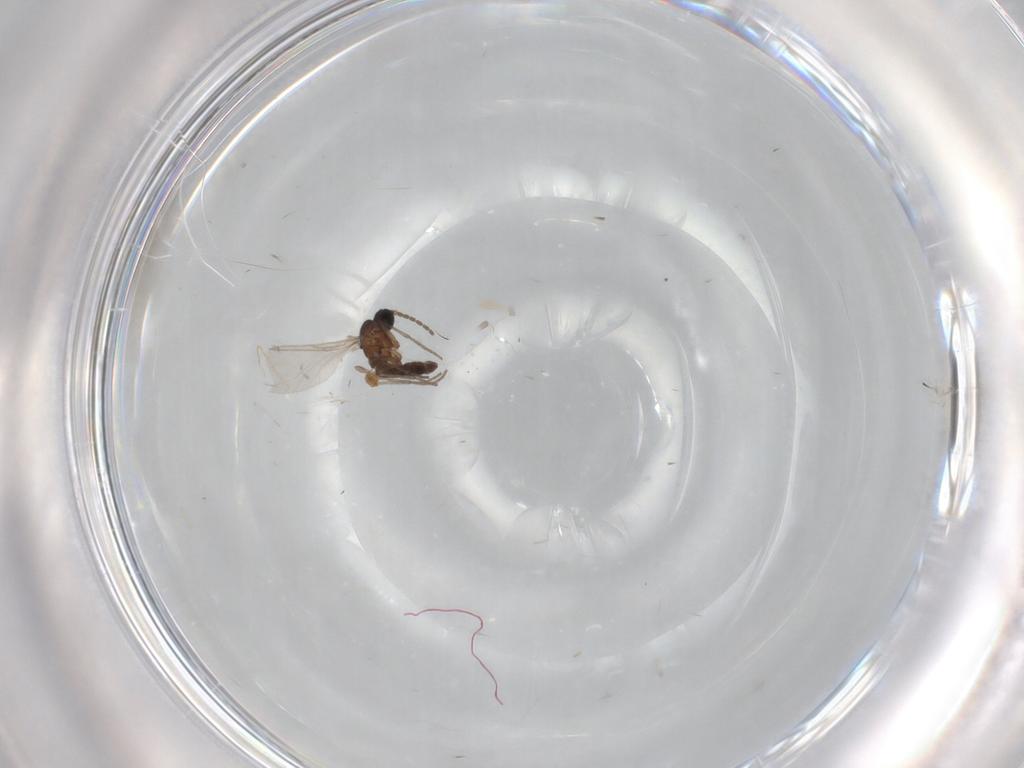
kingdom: Animalia
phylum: Arthropoda
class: Insecta
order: Diptera
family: Sciaridae
